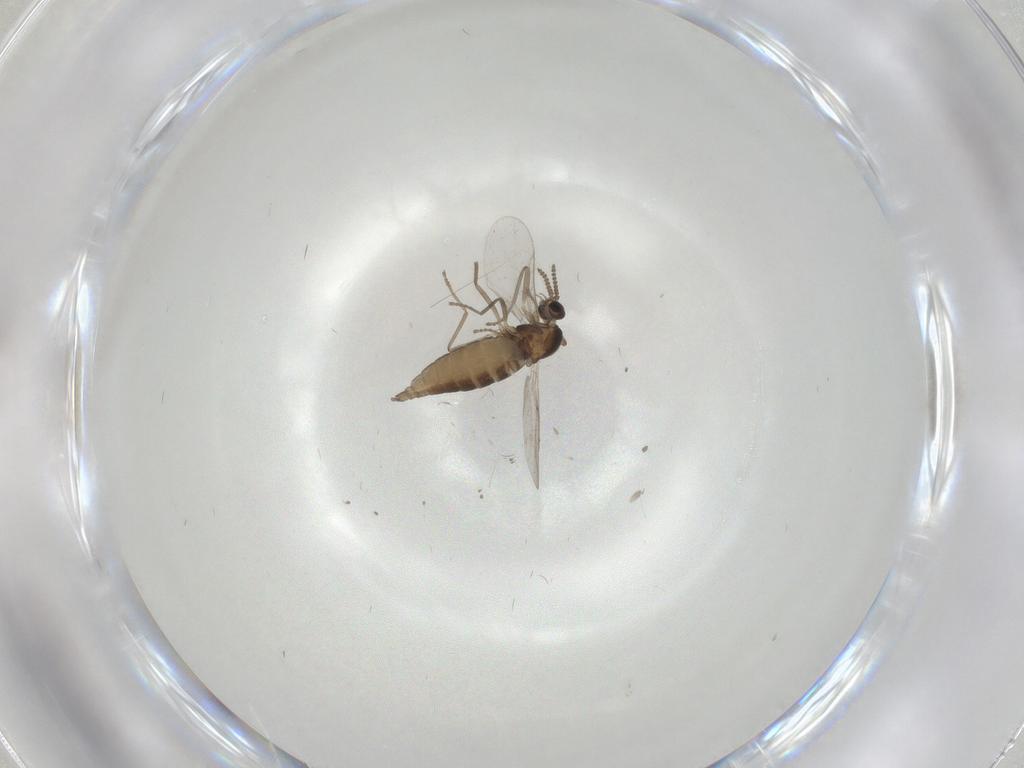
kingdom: Animalia
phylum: Arthropoda
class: Insecta
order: Diptera
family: Cecidomyiidae
